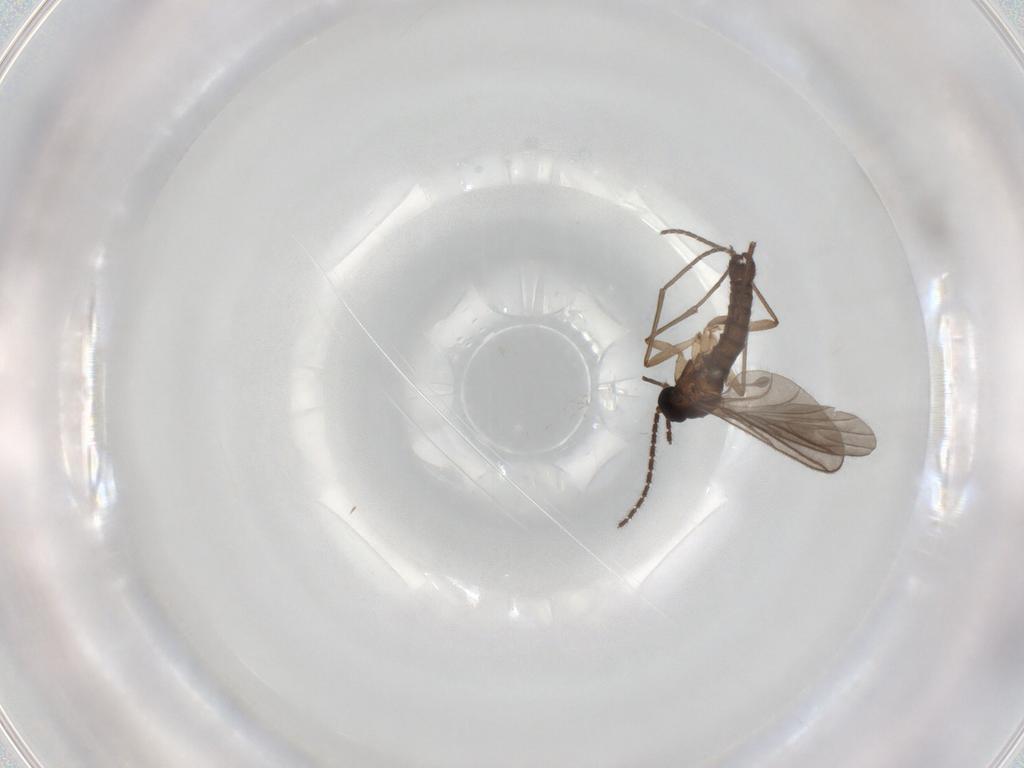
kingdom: Animalia
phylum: Arthropoda
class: Insecta
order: Diptera
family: Chloropidae
